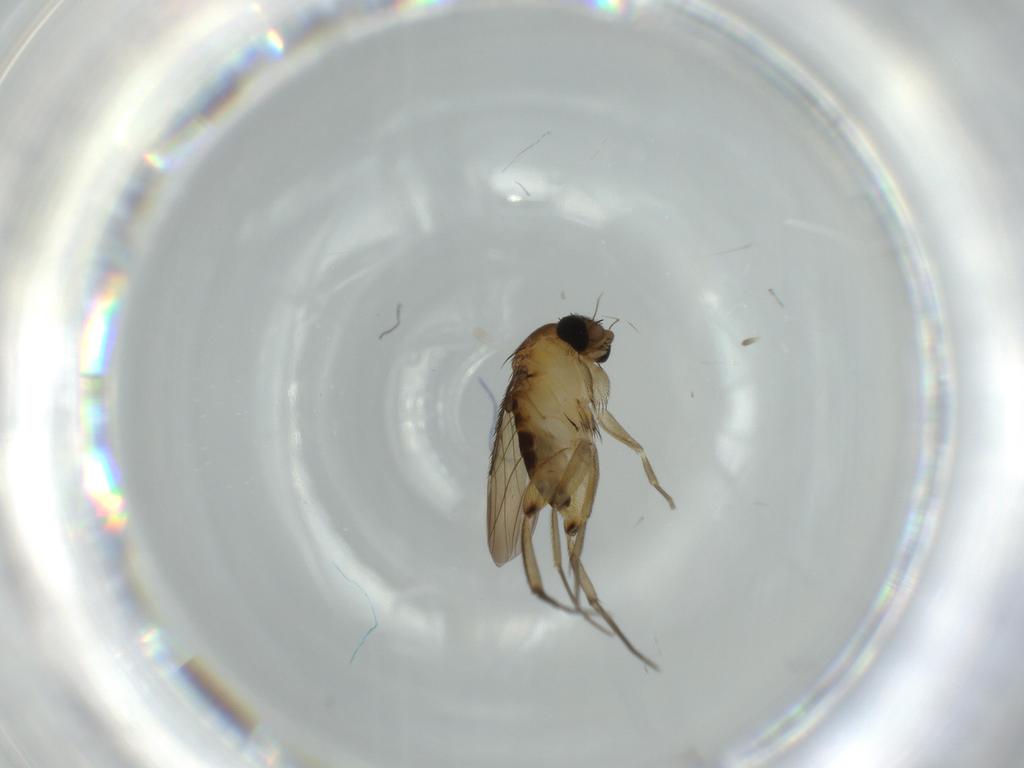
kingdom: Animalia
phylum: Arthropoda
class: Insecta
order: Diptera
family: Phoridae
